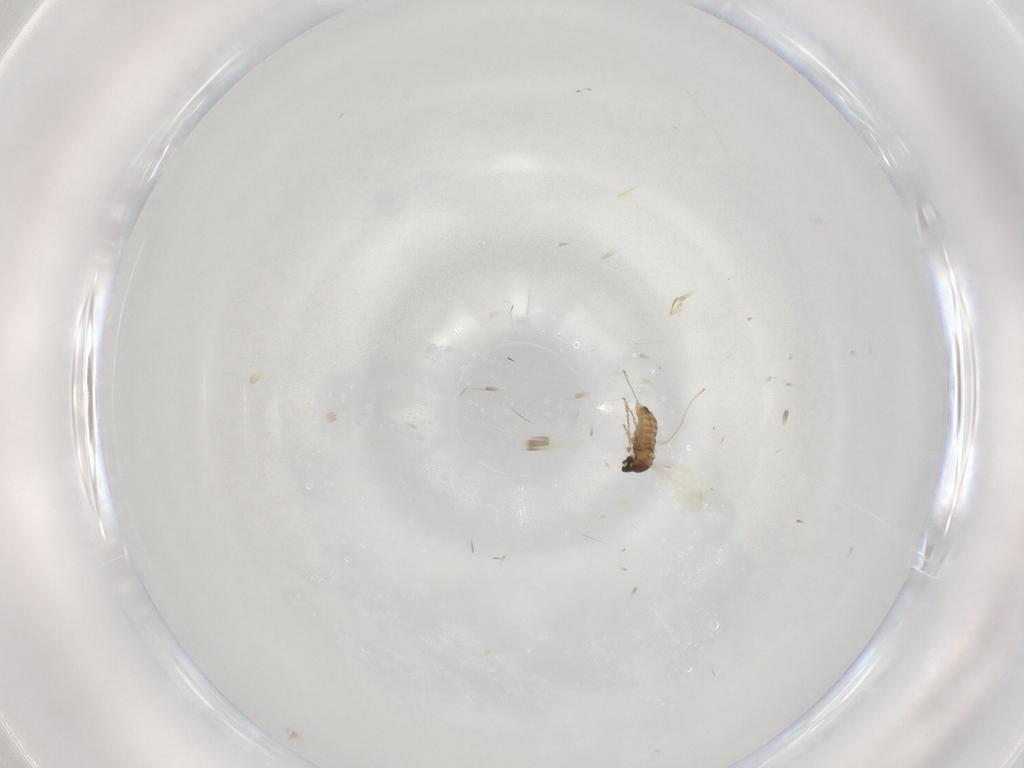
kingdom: Animalia
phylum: Arthropoda
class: Insecta
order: Diptera
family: Cecidomyiidae
